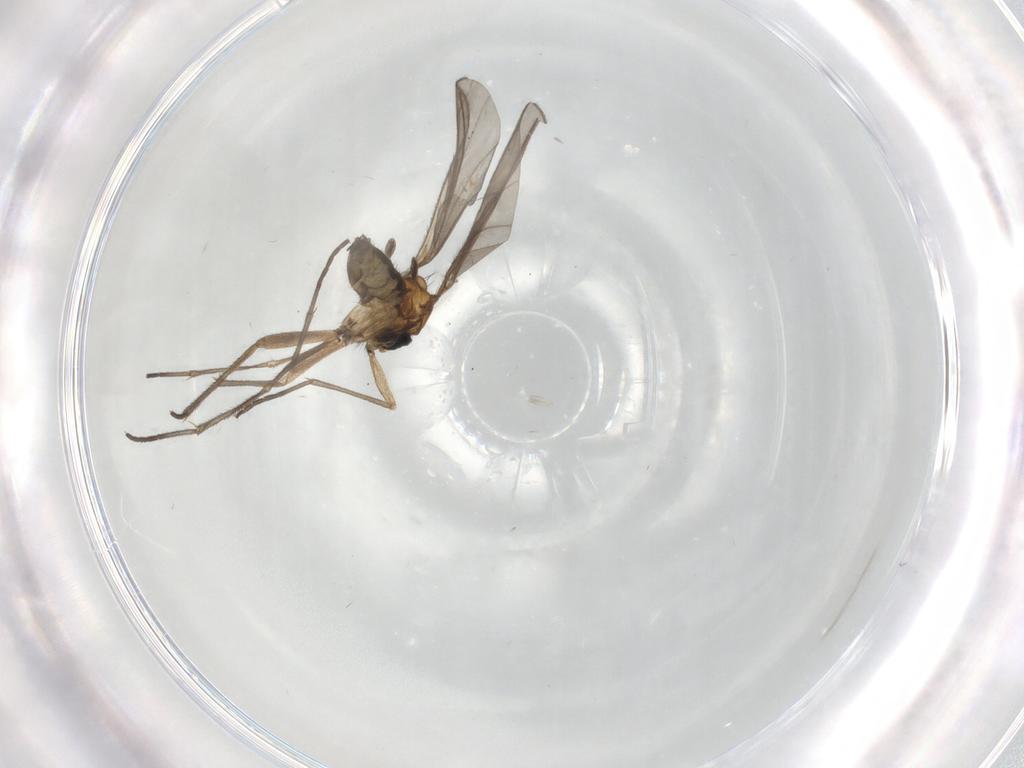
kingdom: Animalia
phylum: Arthropoda
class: Insecta
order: Diptera
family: Sciaridae
